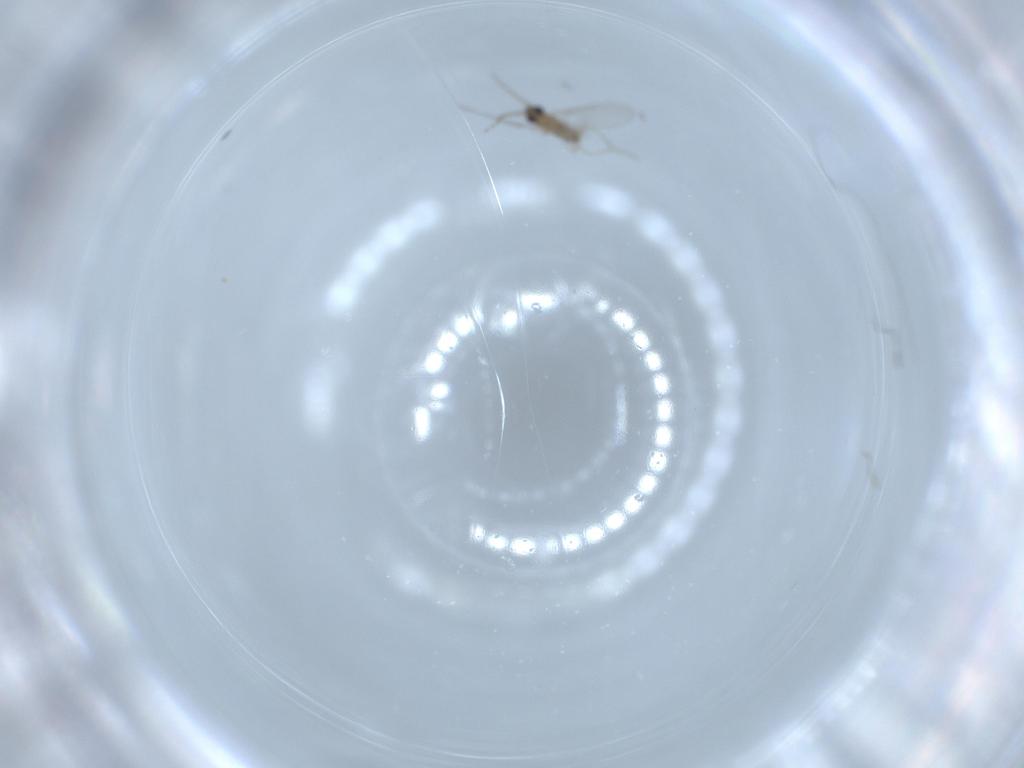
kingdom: Animalia
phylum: Arthropoda
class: Insecta
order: Diptera
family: Cecidomyiidae
